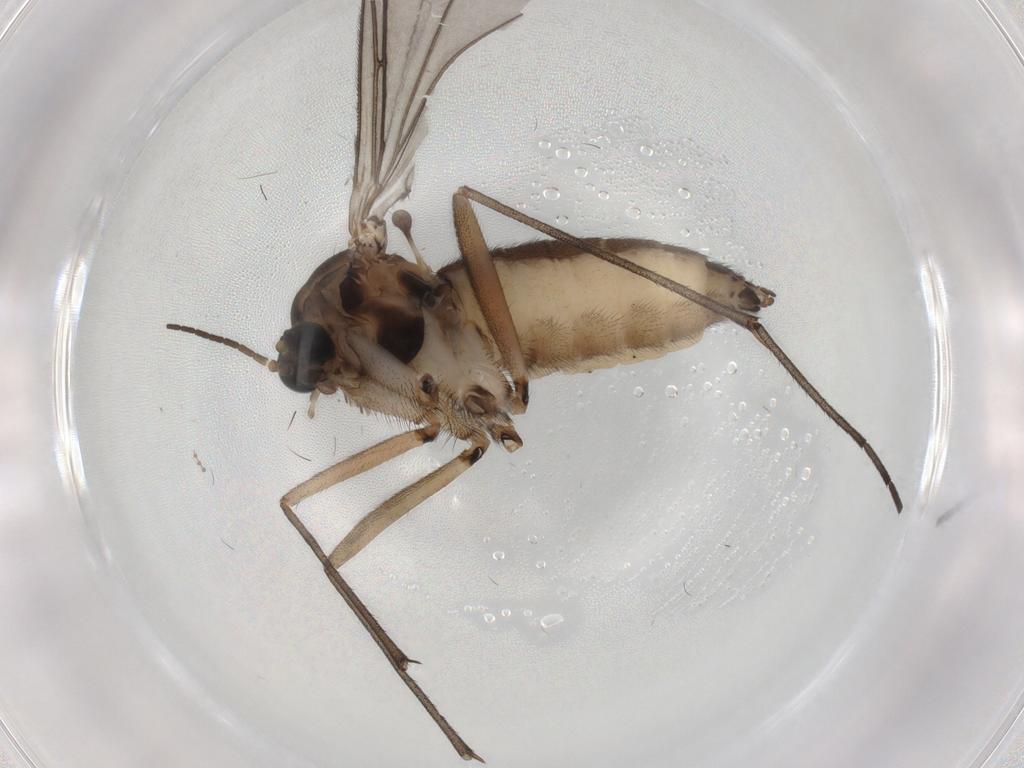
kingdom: Animalia
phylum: Arthropoda
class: Insecta
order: Diptera
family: Sciaridae
